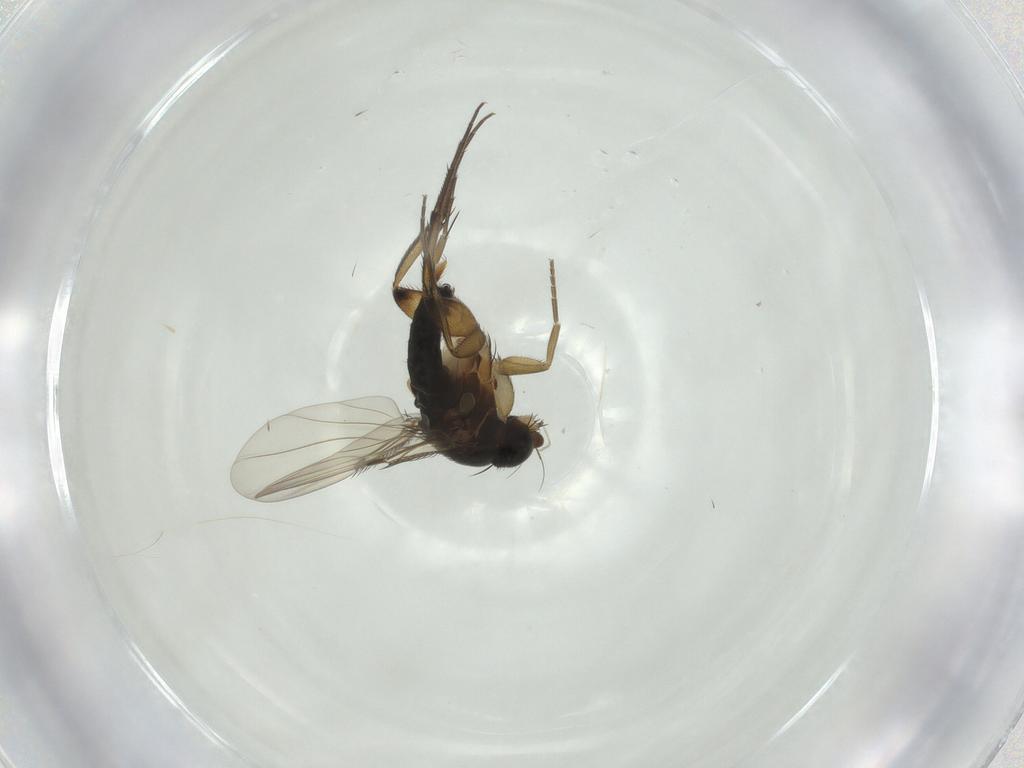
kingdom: Animalia
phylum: Arthropoda
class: Insecta
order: Diptera
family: Phoridae
